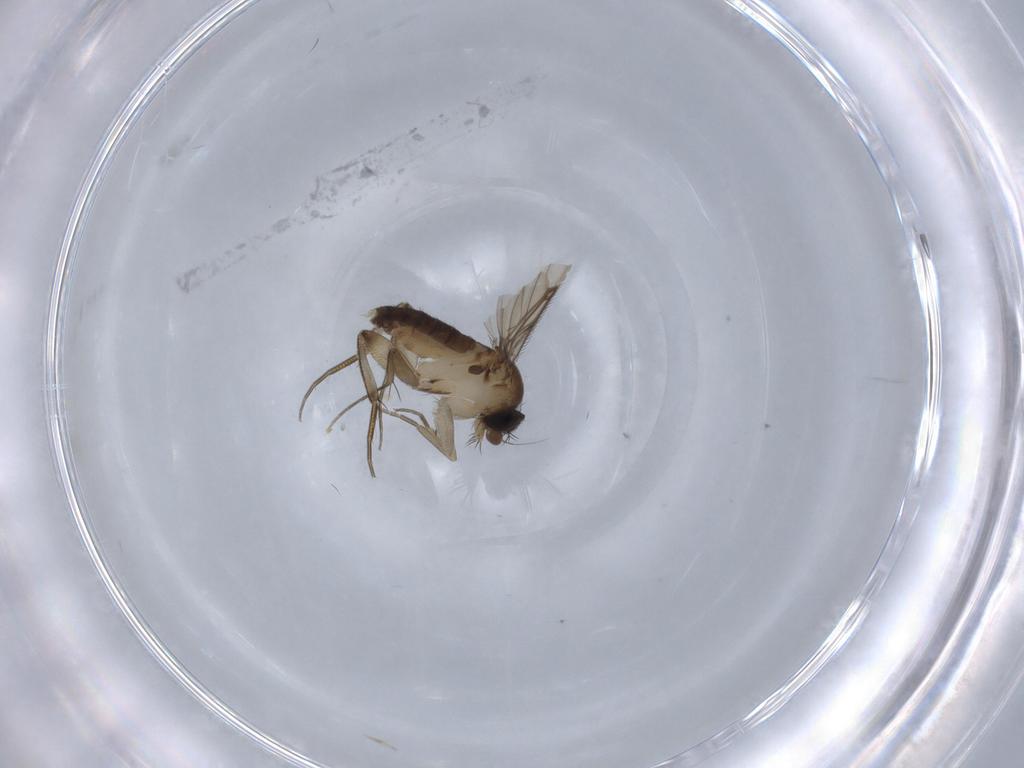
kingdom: Animalia
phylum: Arthropoda
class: Insecta
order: Diptera
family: Phoridae
